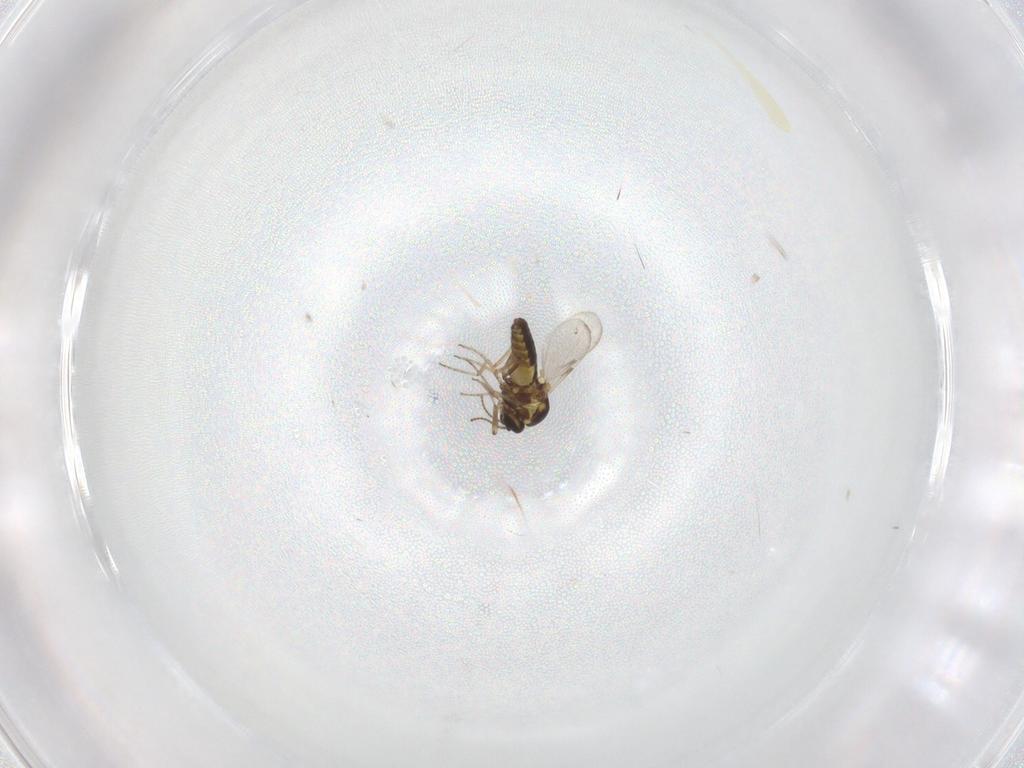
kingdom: Animalia
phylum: Arthropoda
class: Insecta
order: Diptera
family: Ceratopogonidae
